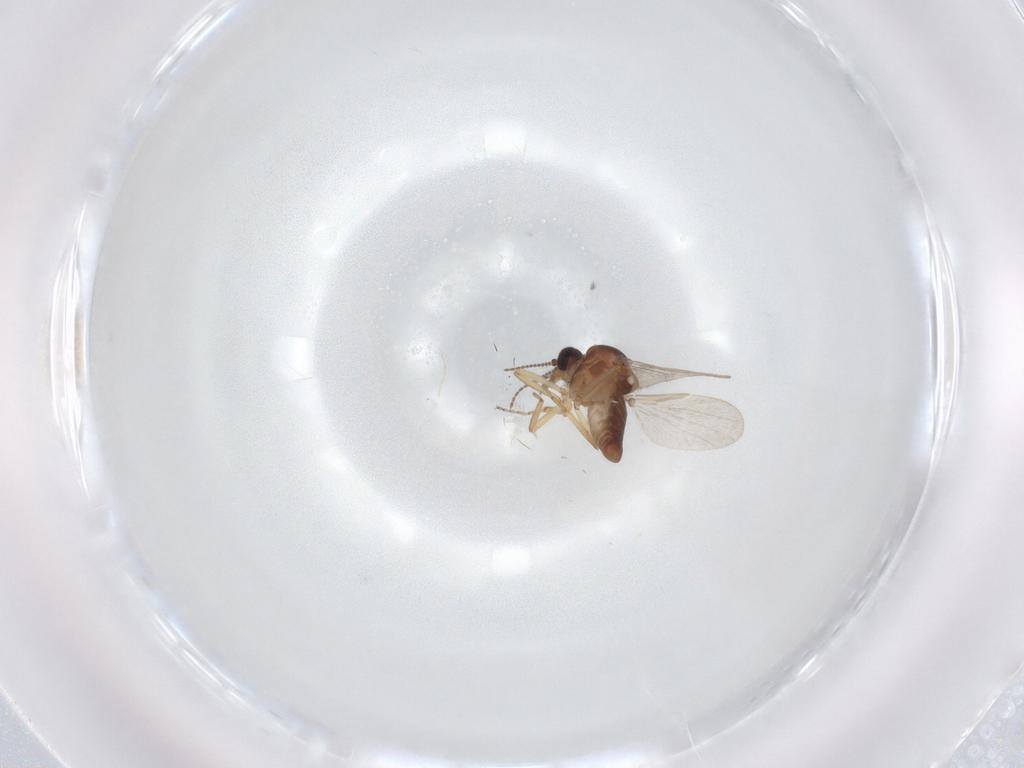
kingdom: Animalia
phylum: Arthropoda
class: Insecta
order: Diptera
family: Ceratopogonidae
